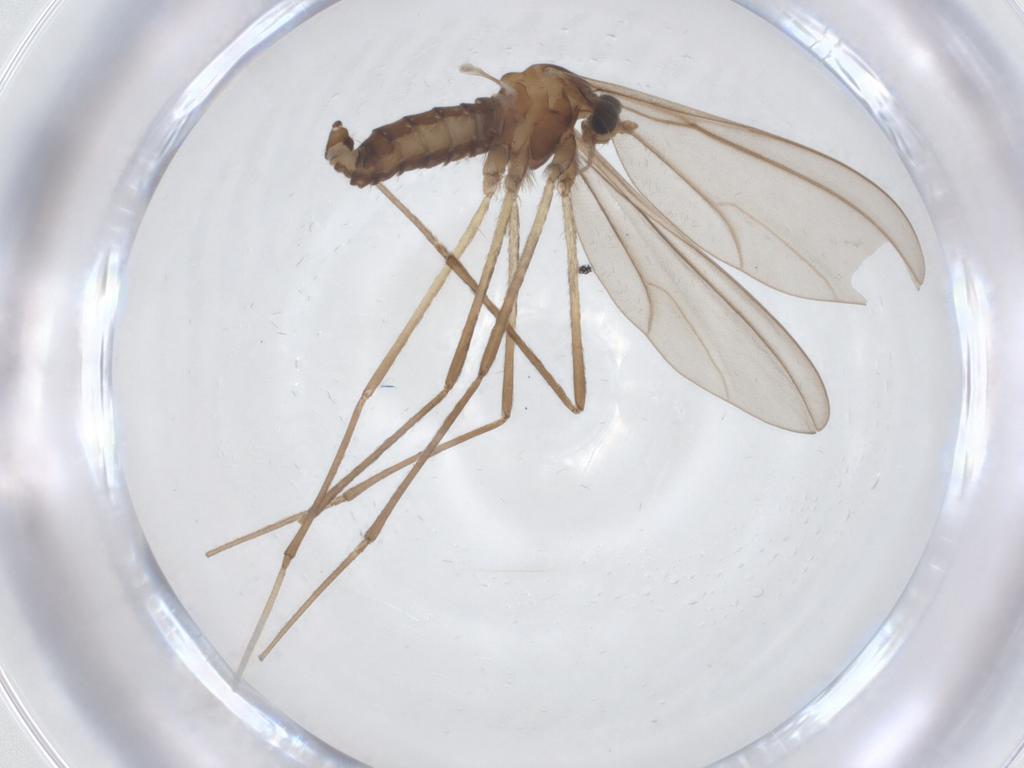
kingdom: Animalia
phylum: Arthropoda
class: Insecta
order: Diptera
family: Cecidomyiidae
